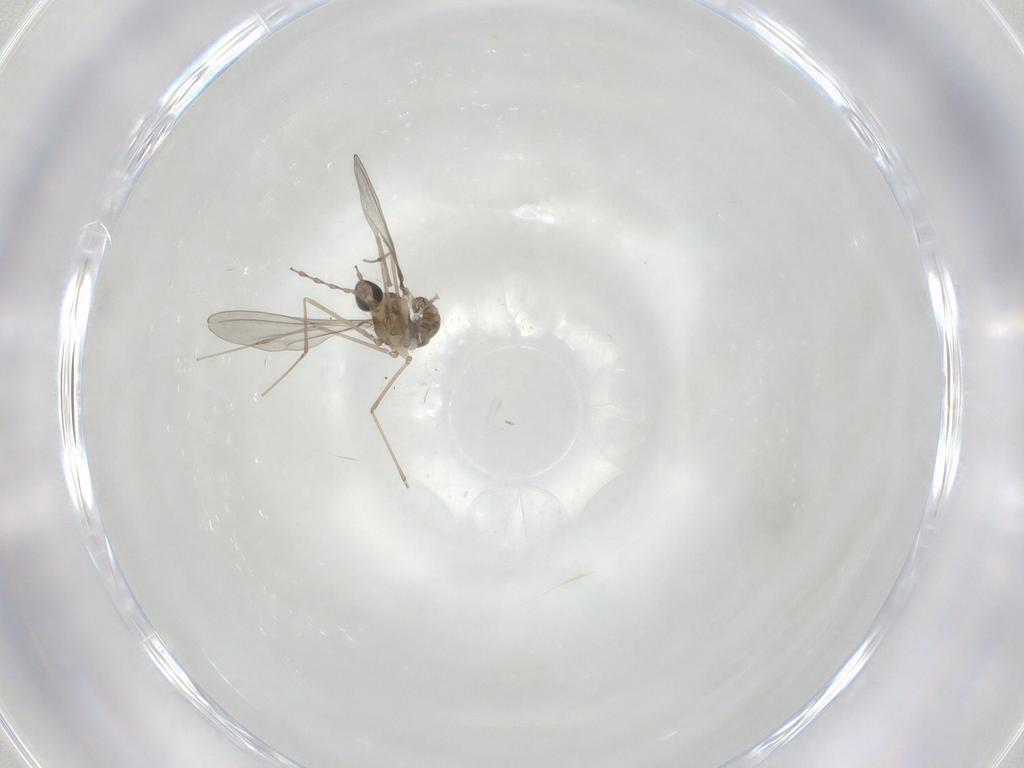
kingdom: Animalia
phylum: Arthropoda
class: Insecta
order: Diptera
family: Cecidomyiidae
